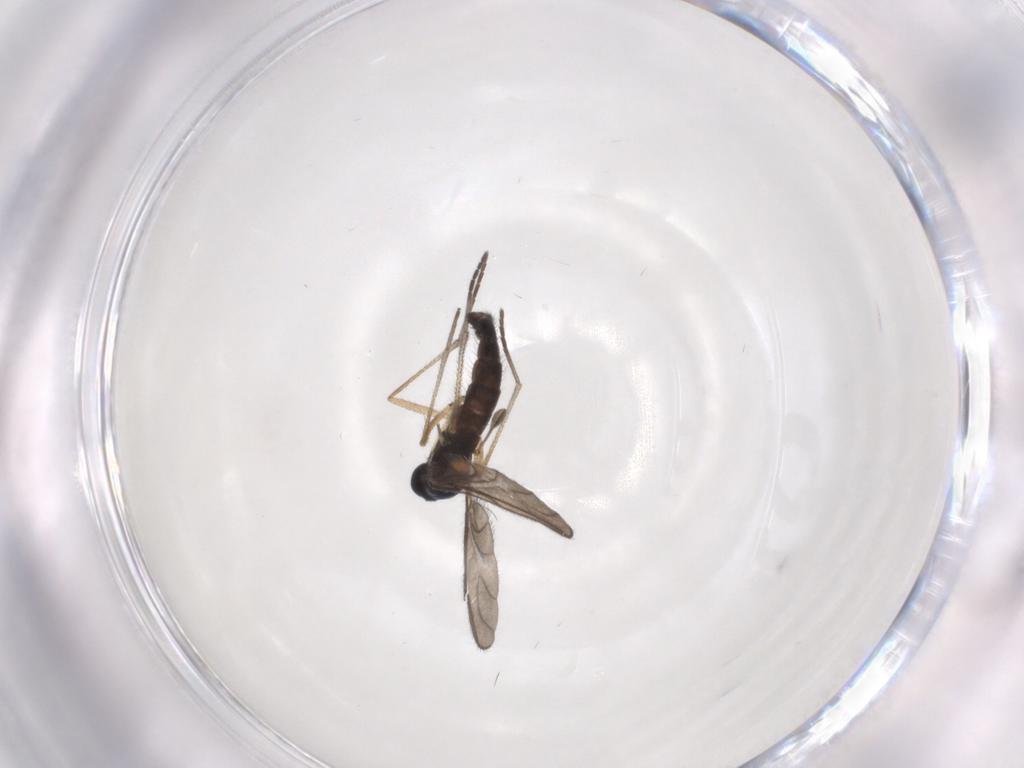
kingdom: Animalia
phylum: Arthropoda
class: Insecta
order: Diptera
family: Sciaridae
